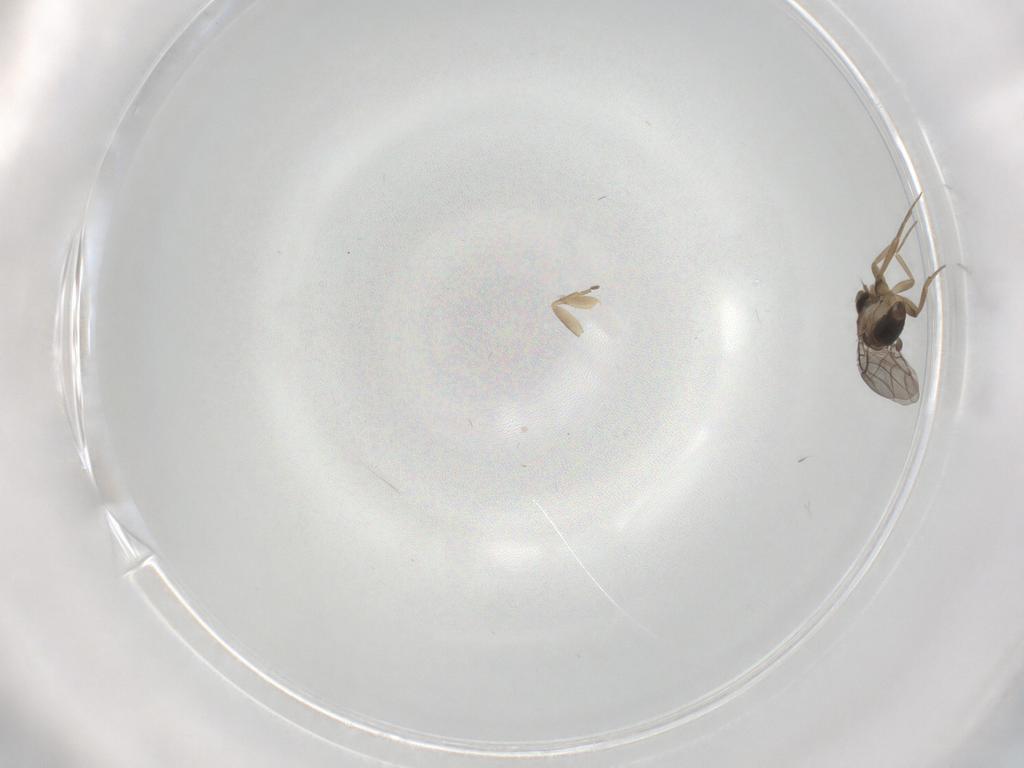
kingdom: Animalia
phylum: Arthropoda
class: Insecta
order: Diptera
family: Phoridae
